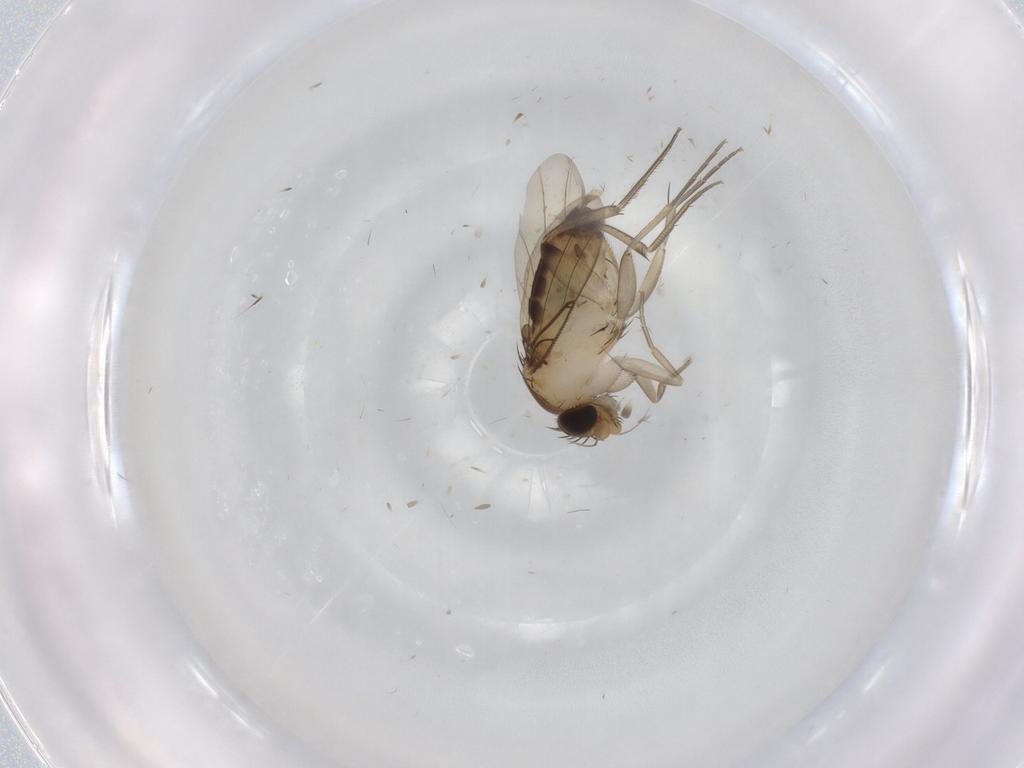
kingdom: Animalia
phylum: Arthropoda
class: Insecta
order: Diptera
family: Phoridae
